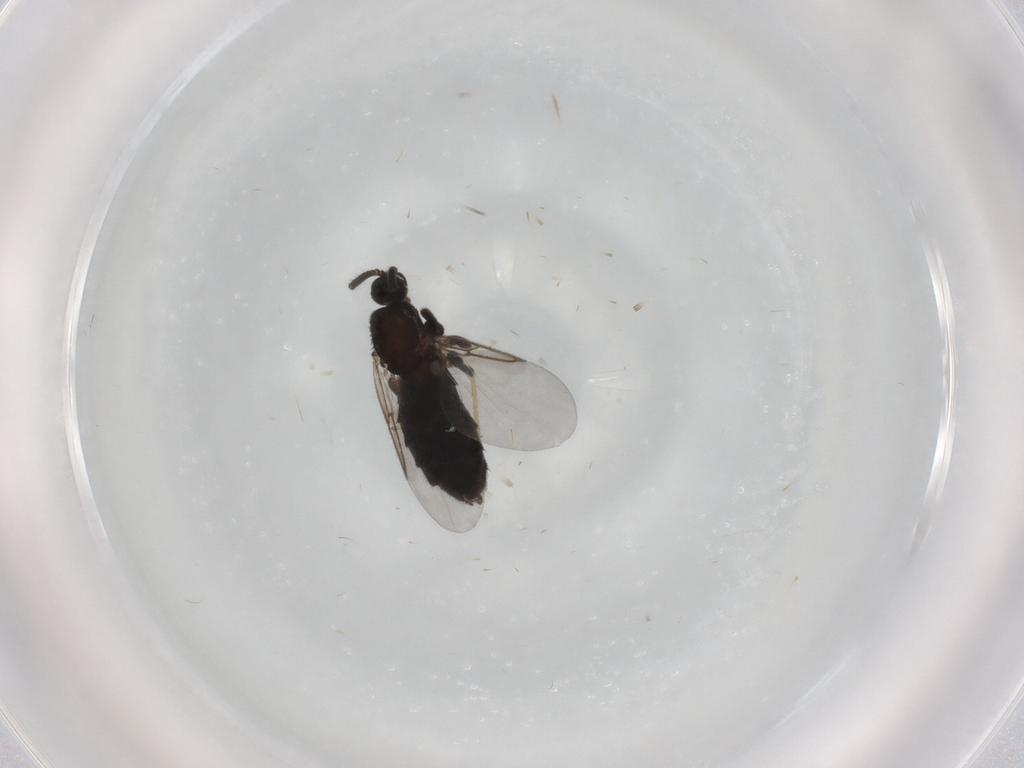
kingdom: Animalia
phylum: Arthropoda
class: Insecta
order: Diptera
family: Scatopsidae
